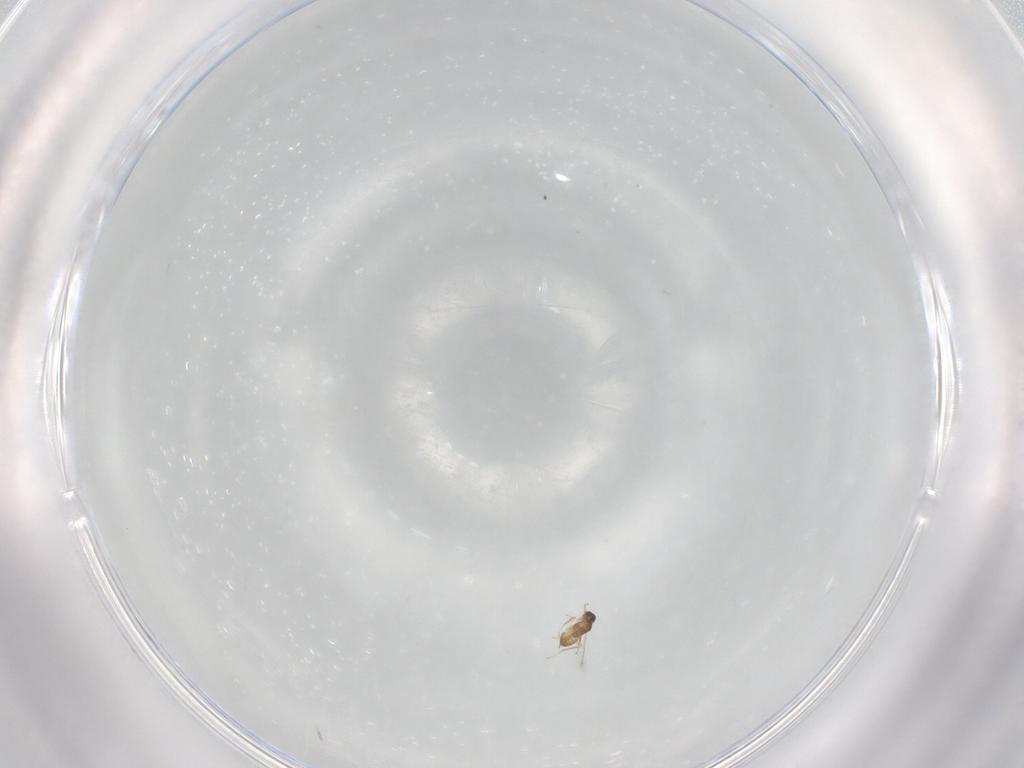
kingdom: Animalia
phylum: Arthropoda
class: Insecta
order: Hymenoptera
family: Mymaridae
